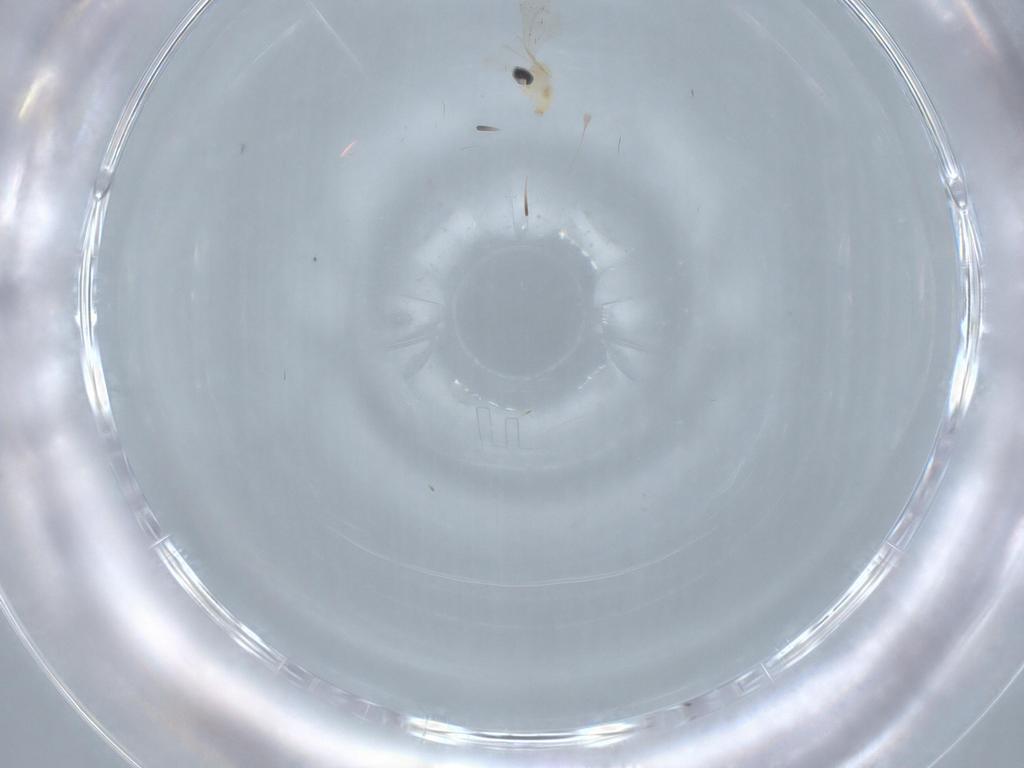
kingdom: Animalia
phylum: Arthropoda
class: Insecta
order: Diptera
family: Cecidomyiidae
